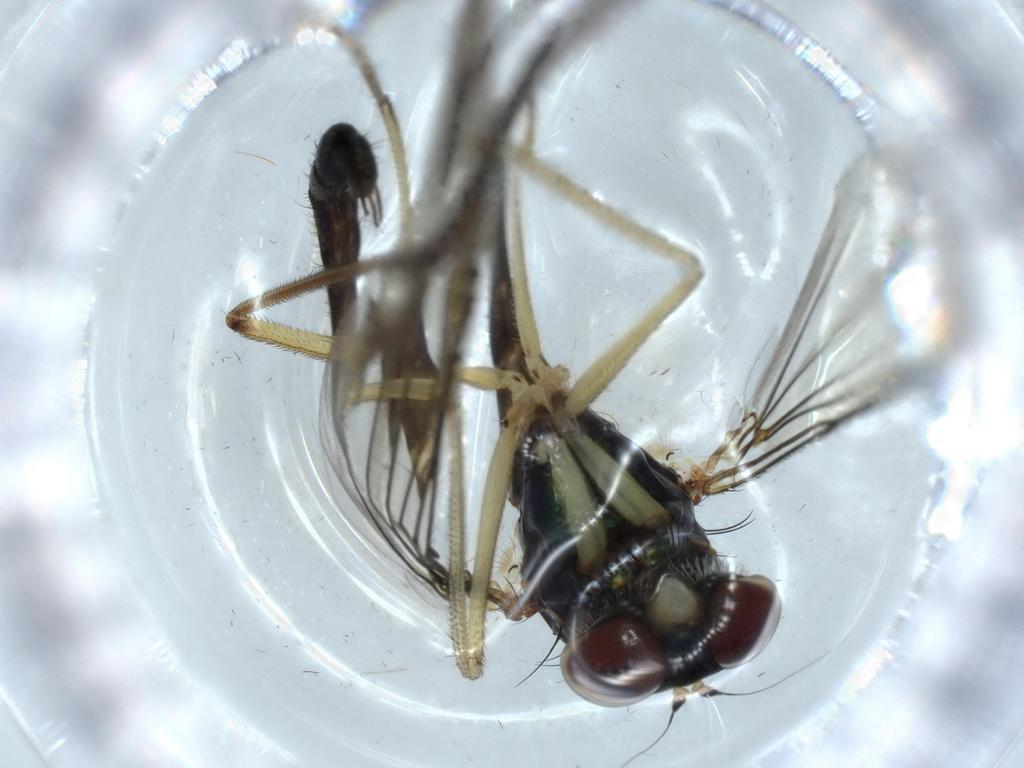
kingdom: Animalia
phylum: Arthropoda
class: Insecta
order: Diptera
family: Dolichopodidae
